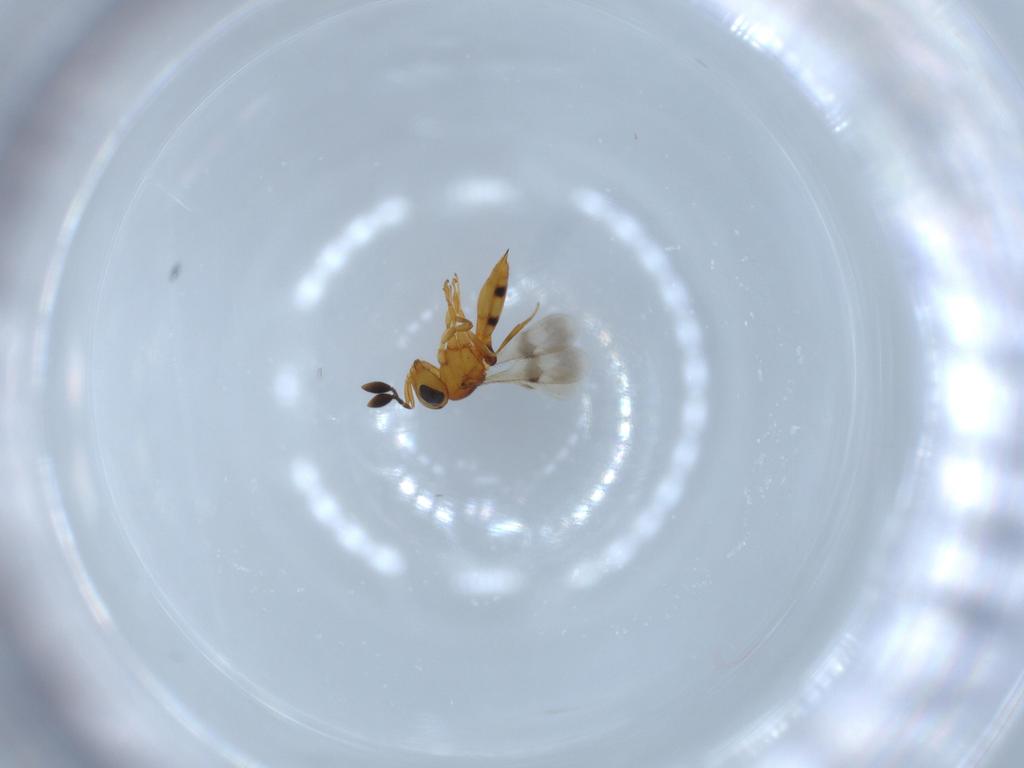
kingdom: Animalia
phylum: Arthropoda
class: Insecta
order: Hymenoptera
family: Scelionidae
